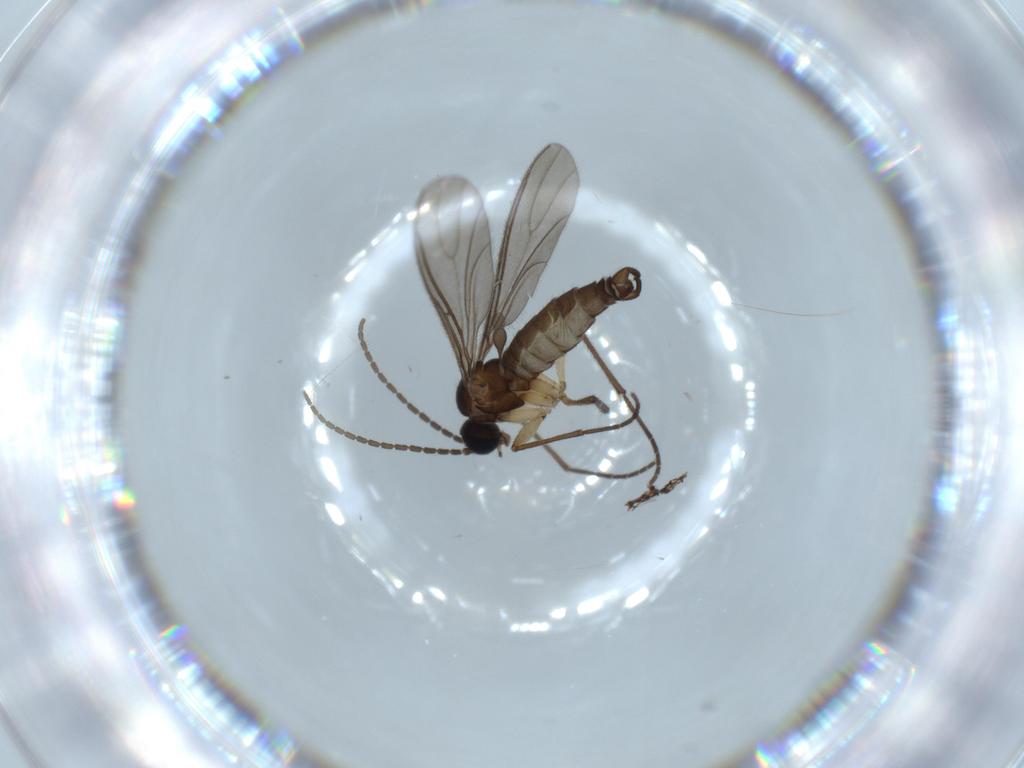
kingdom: Animalia
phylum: Arthropoda
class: Insecta
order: Diptera
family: Sciaridae
